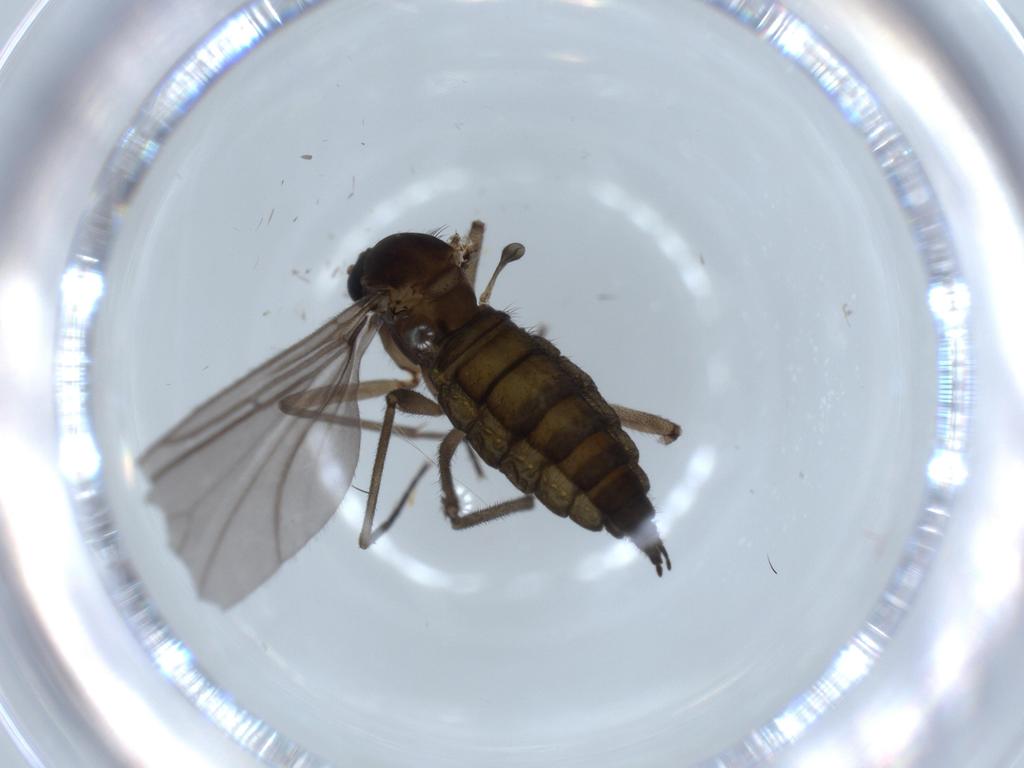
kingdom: Animalia
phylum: Arthropoda
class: Insecta
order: Diptera
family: Sciaridae
